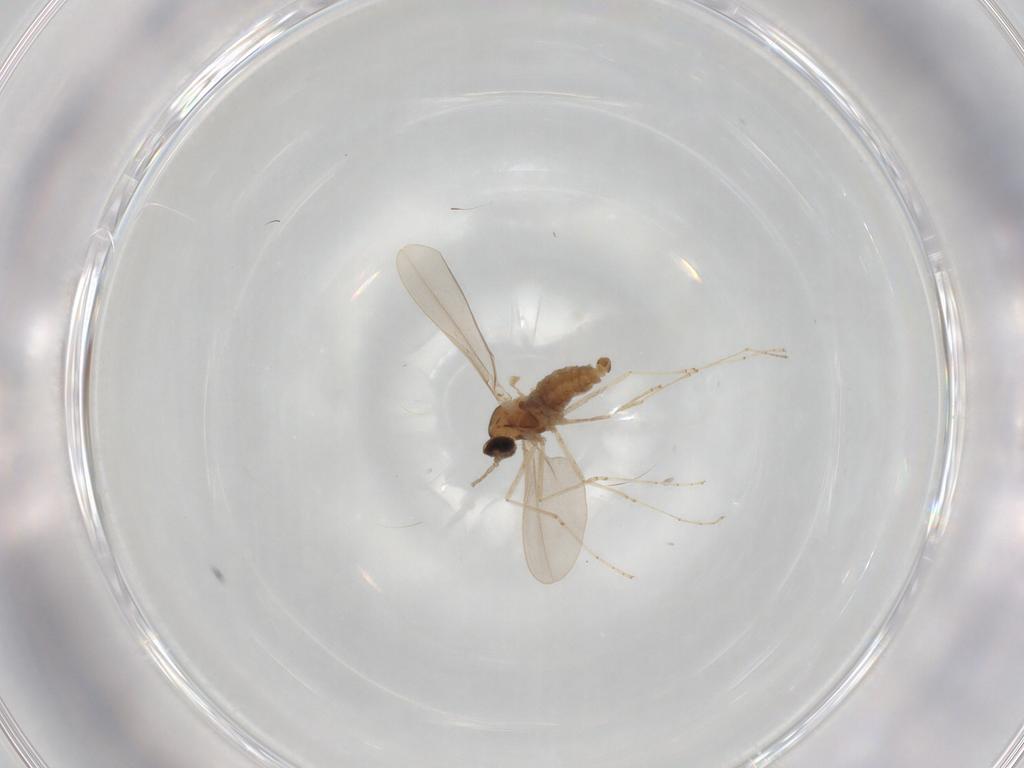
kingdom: Animalia
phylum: Arthropoda
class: Insecta
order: Diptera
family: Cecidomyiidae
